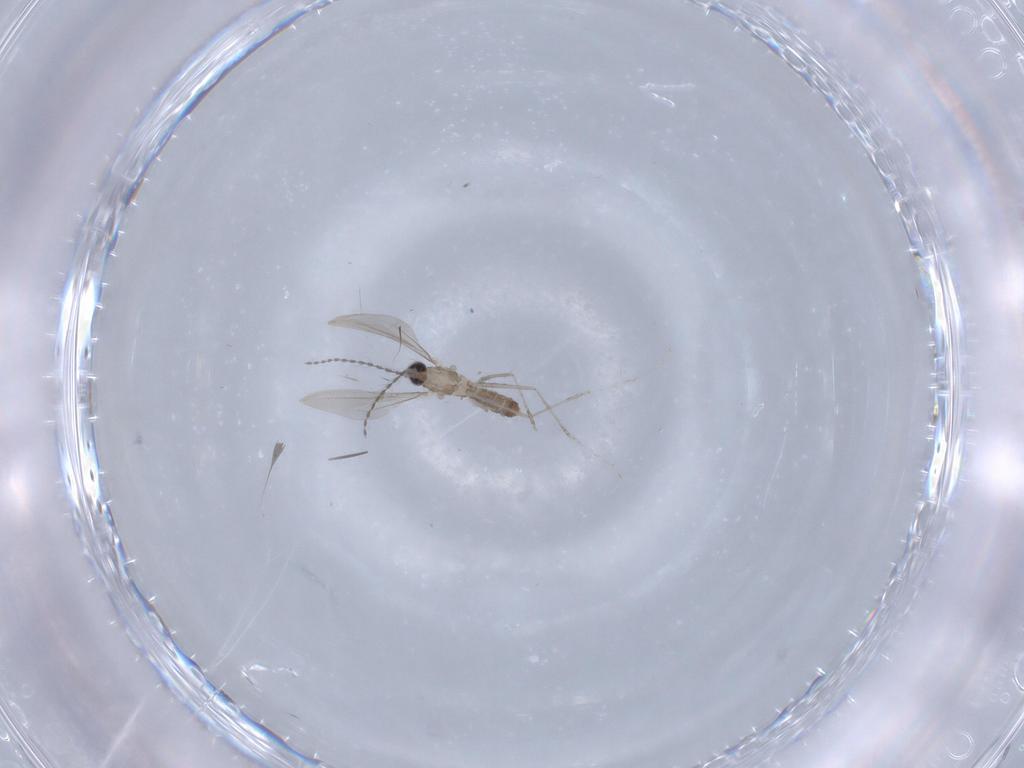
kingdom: Animalia
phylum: Arthropoda
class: Insecta
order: Diptera
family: Cecidomyiidae
